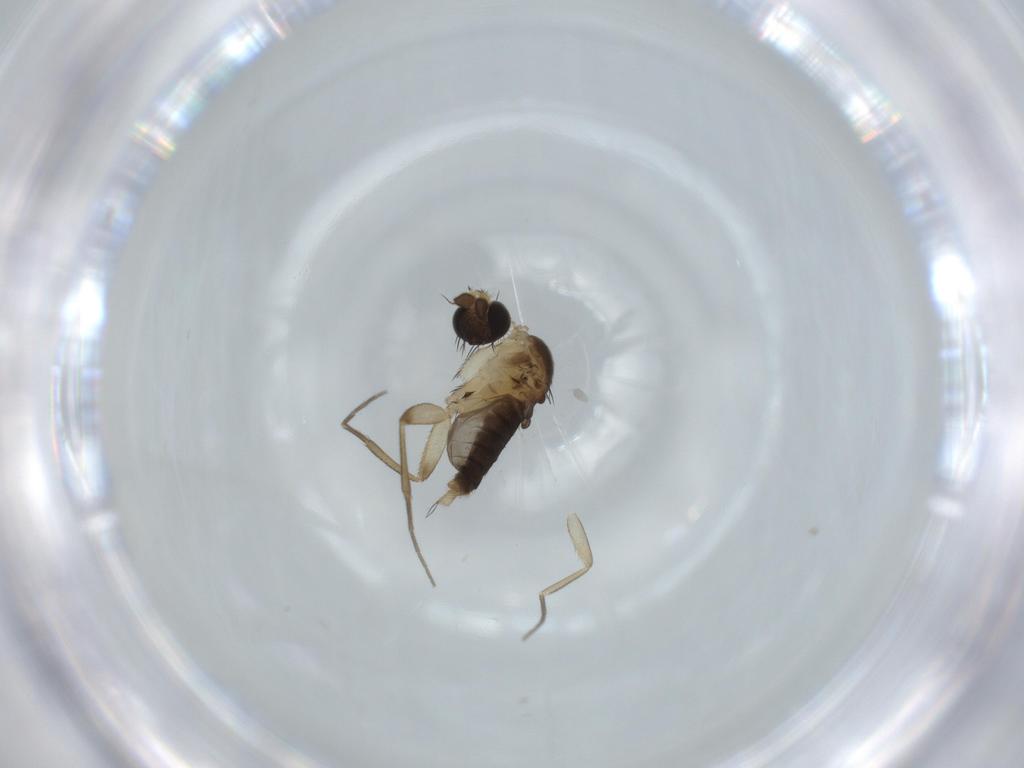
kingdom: Animalia
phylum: Arthropoda
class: Insecta
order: Diptera
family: Phoridae
